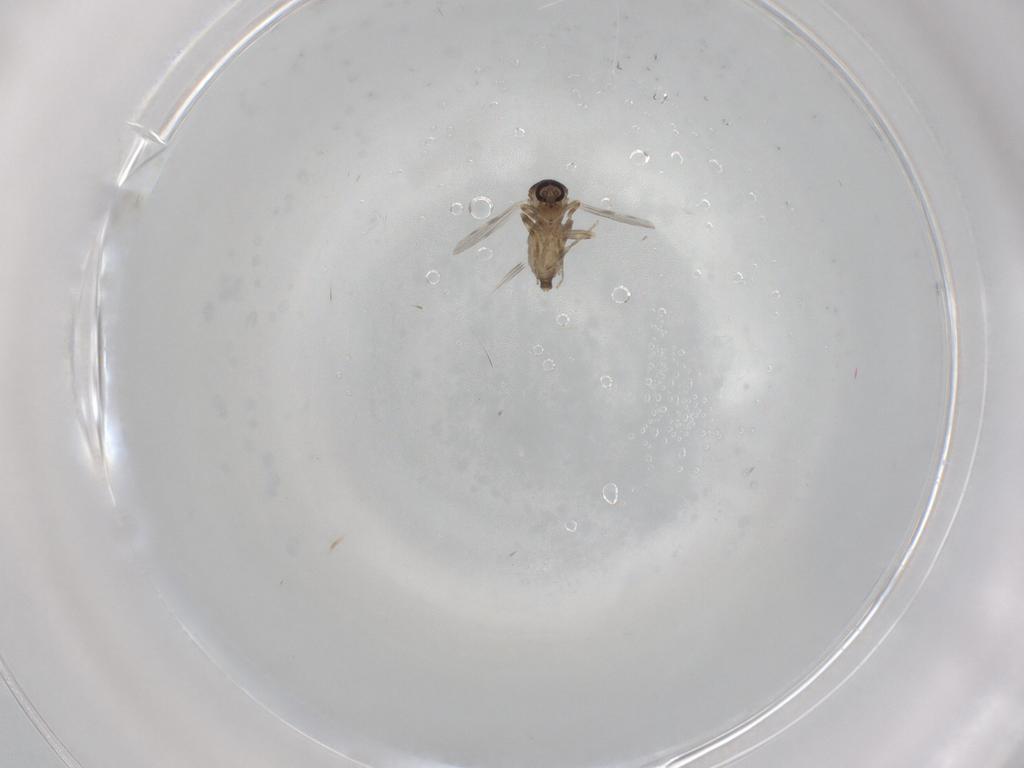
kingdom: Animalia
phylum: Arthropoda
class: Insecta
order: Diptera
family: Ceratopogonidae
